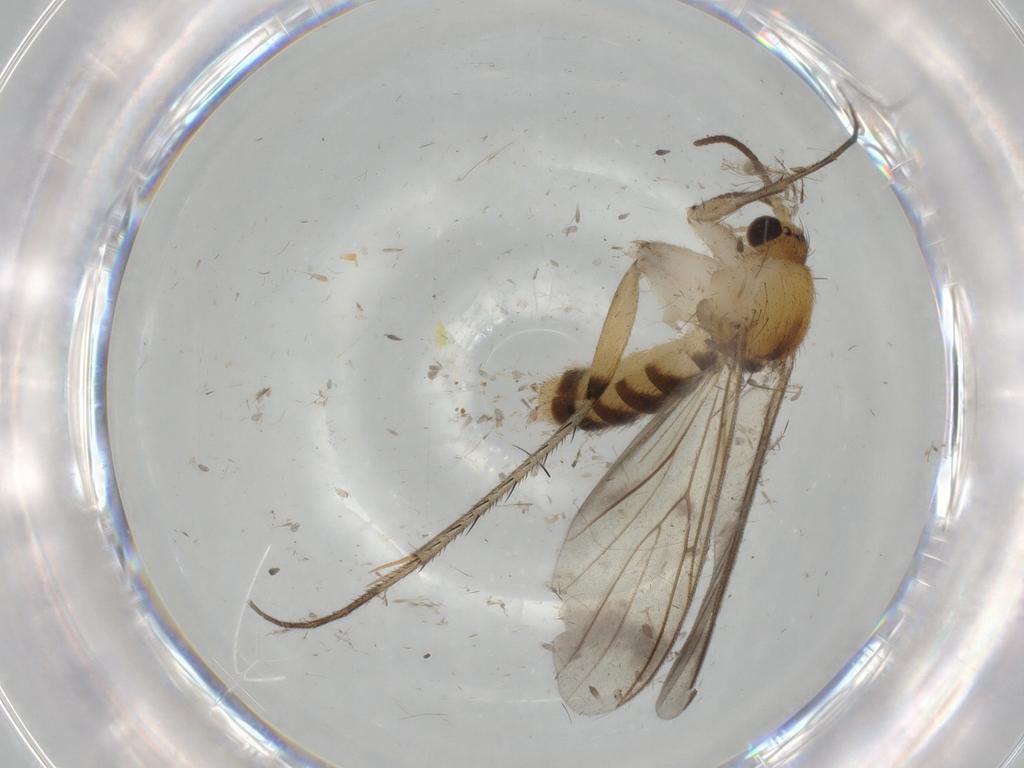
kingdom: Animalia
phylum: Arthropoda
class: Insecta
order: Diptera
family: Mycetophilidae
